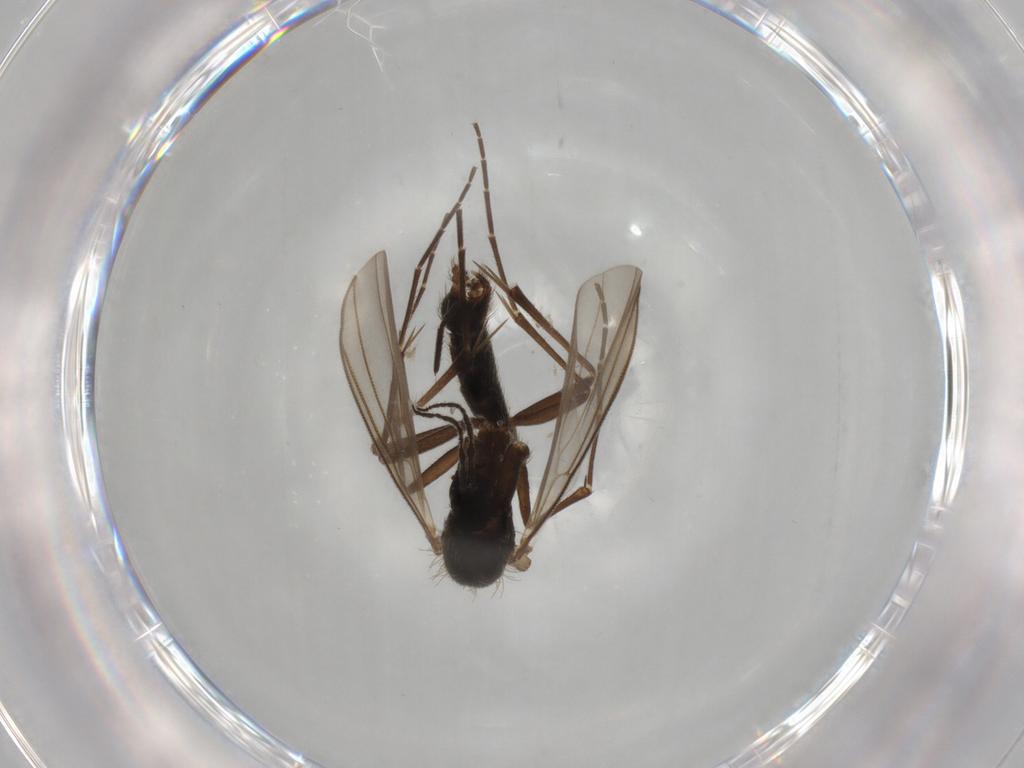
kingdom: Animalia
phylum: Arthropoda
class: Insecta
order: Diptera
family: Mycetophilidae
